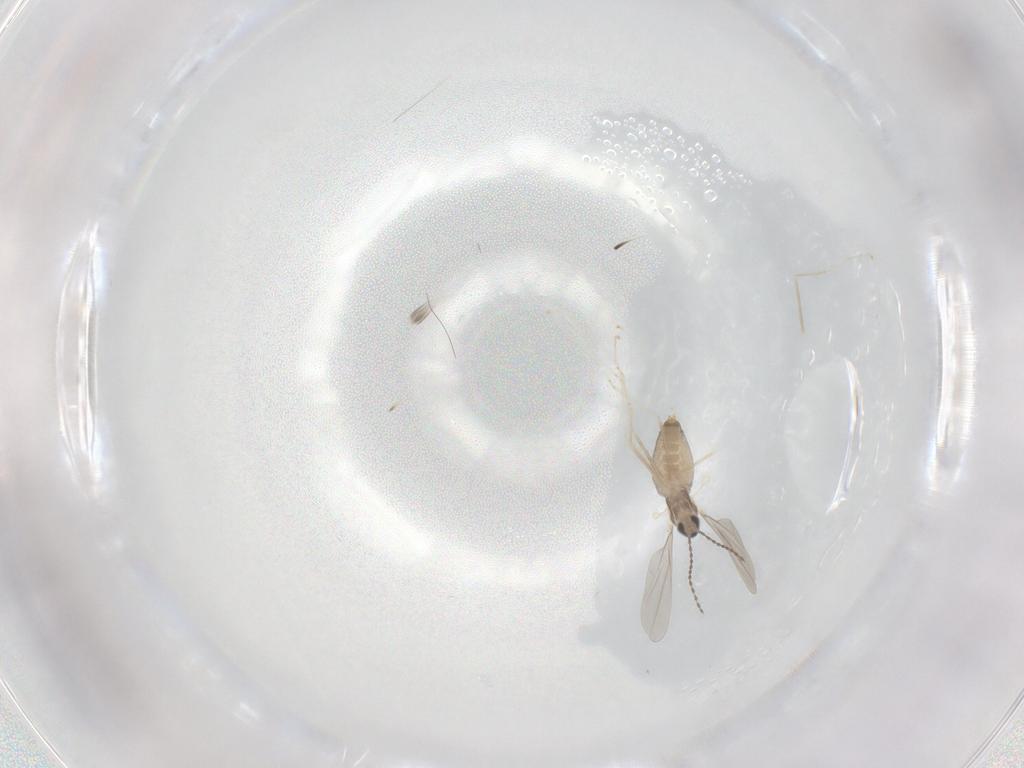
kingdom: Animalia
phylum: Arthropoda
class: Insecta
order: Diptera
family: Cecidomyiidae
